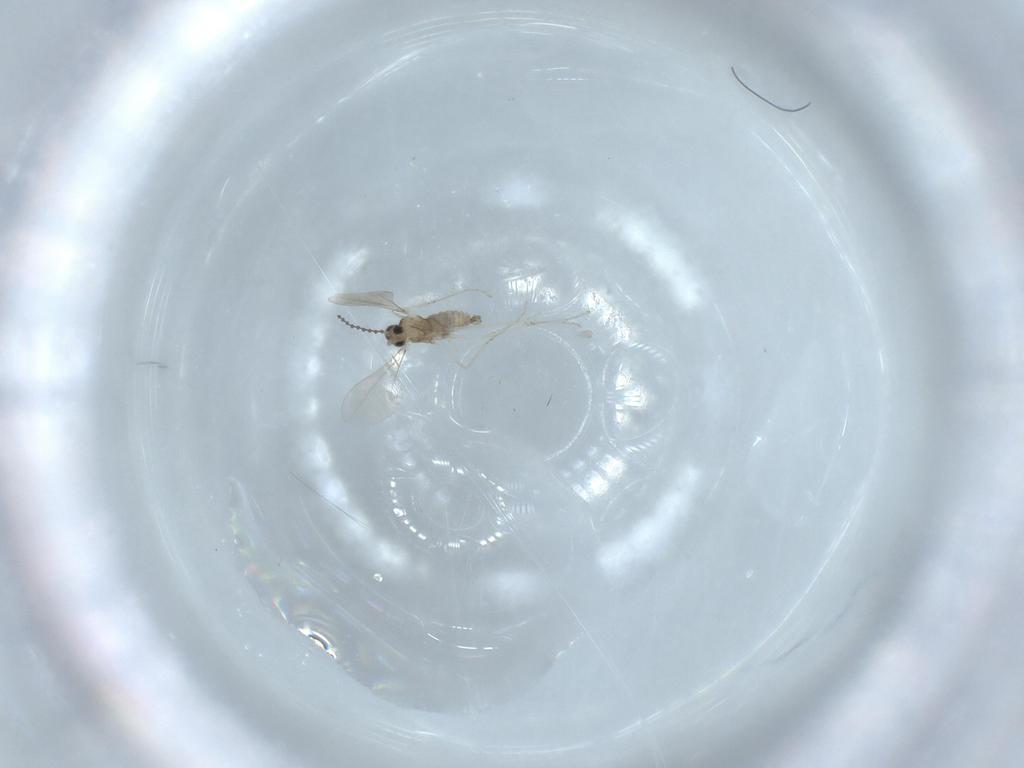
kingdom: Animalia
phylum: Arthropoda
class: Insecta
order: Diptera
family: Cecidomyiidae
